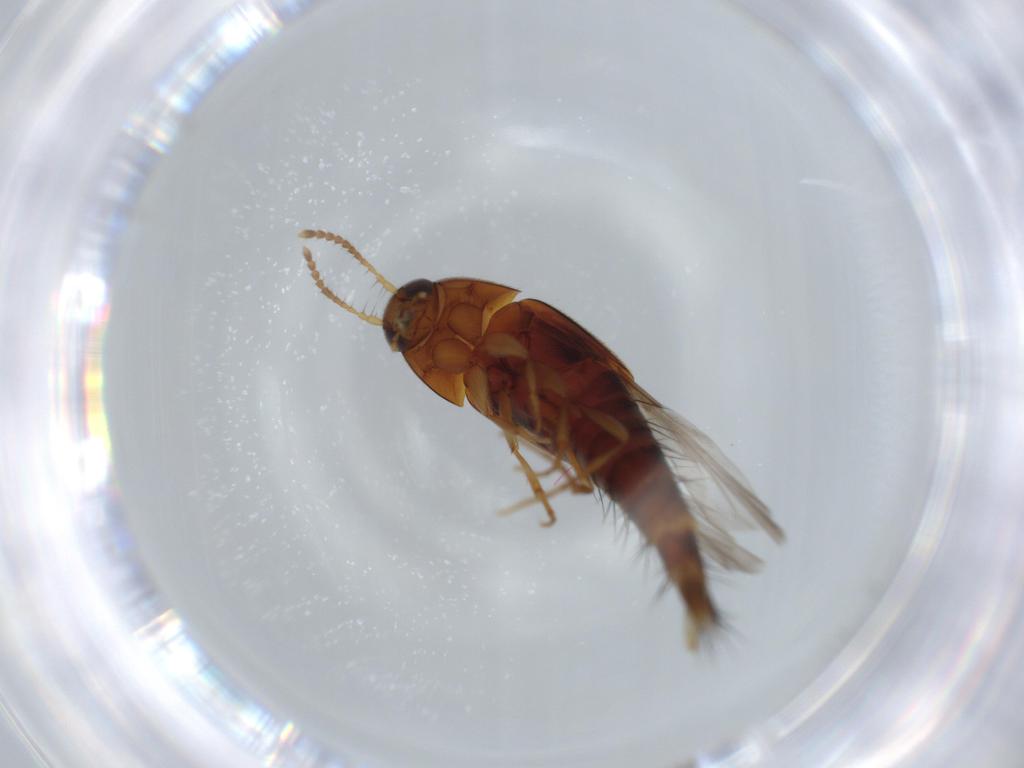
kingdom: Animalia
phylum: Arthropoda
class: Insecta
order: Coleoptera
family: Staphylinidae
